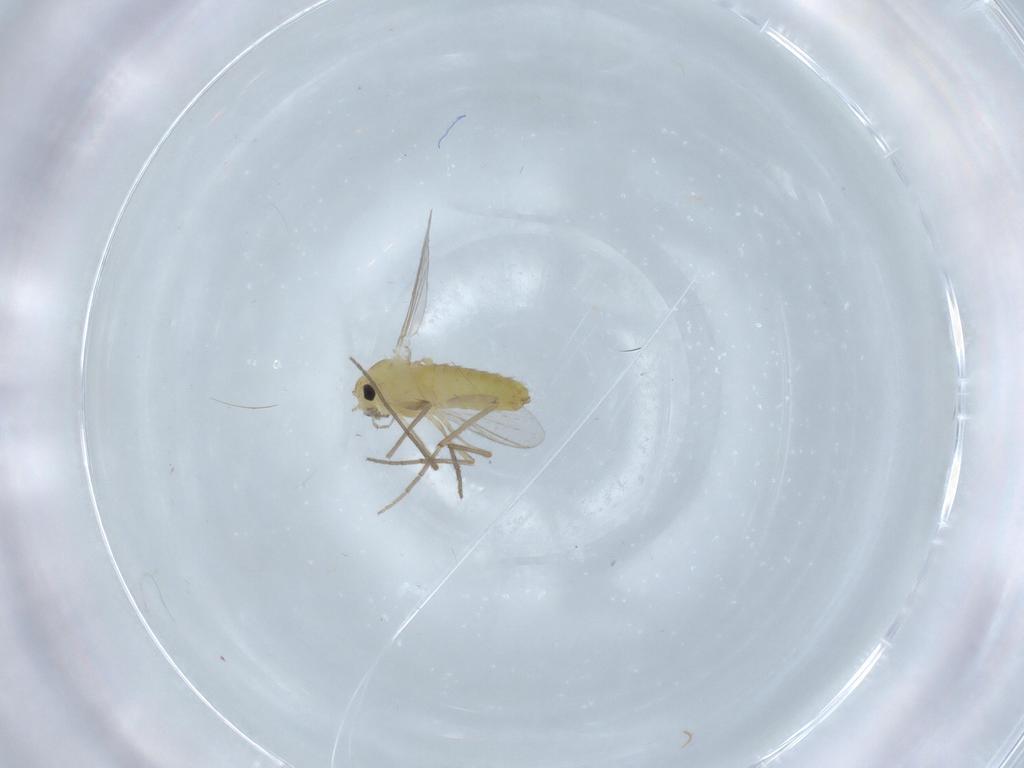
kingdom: Animalia
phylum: Arthropoda
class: Insecta
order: Diptera
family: Chironomidae
